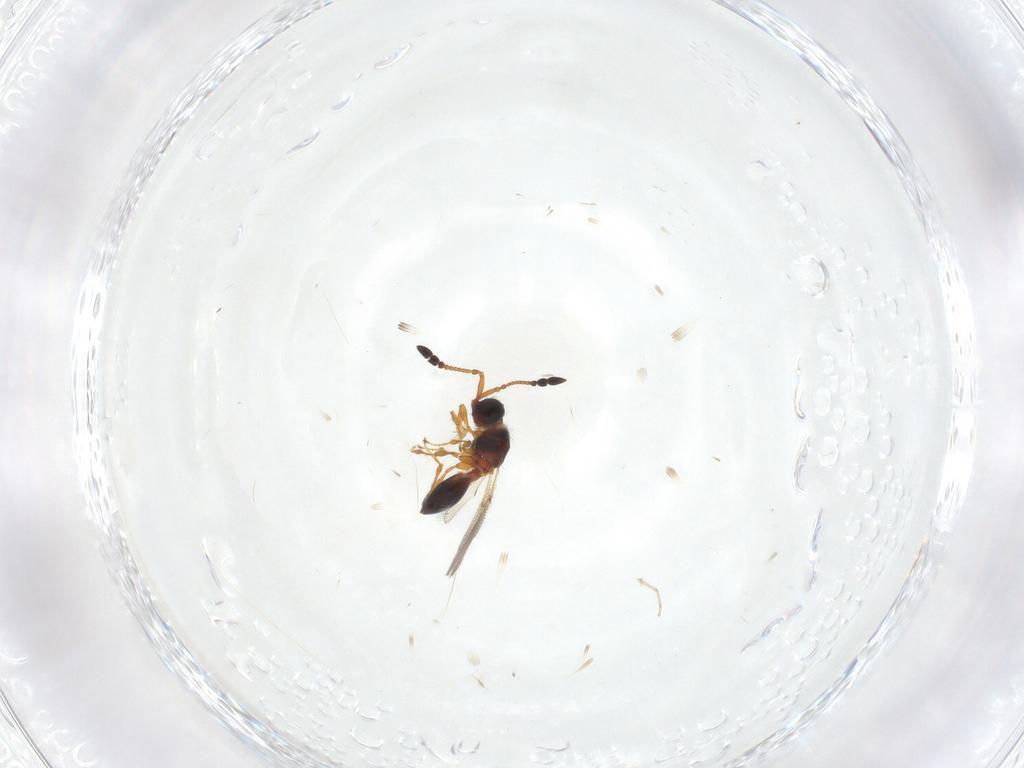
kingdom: Animalia
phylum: Arthropoda
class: Insecta
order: Hymenoptera
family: Diapriidae
